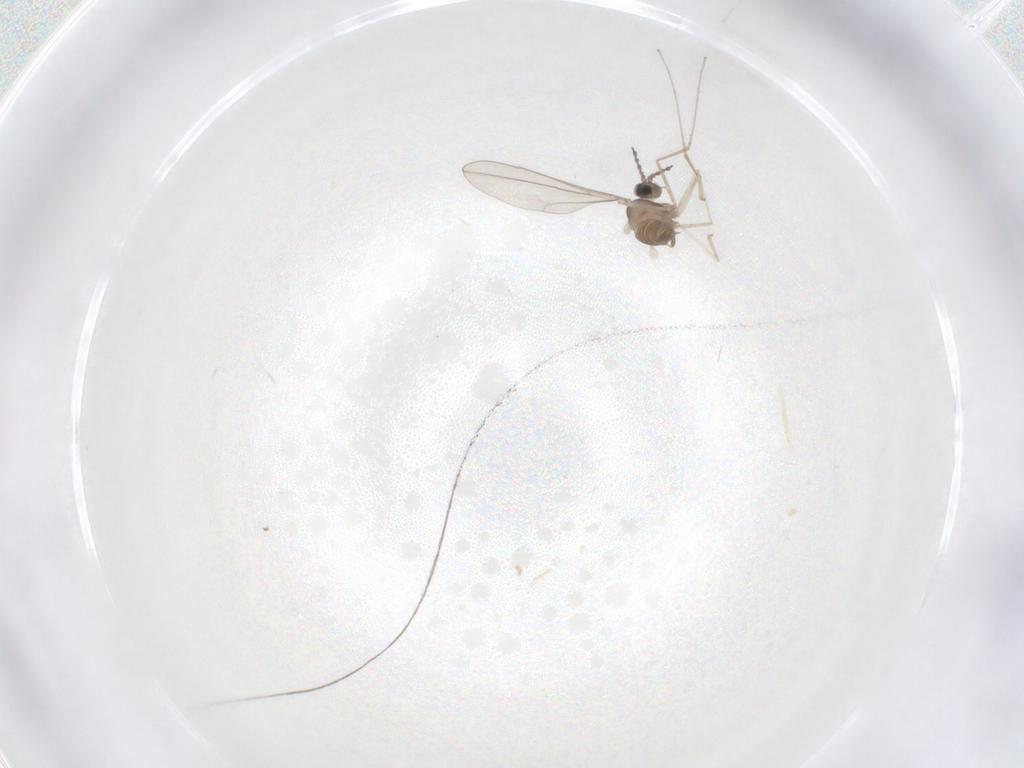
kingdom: Animalia
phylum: Arthropoda
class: Insecta
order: Diptera
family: Cecidomyiidae
